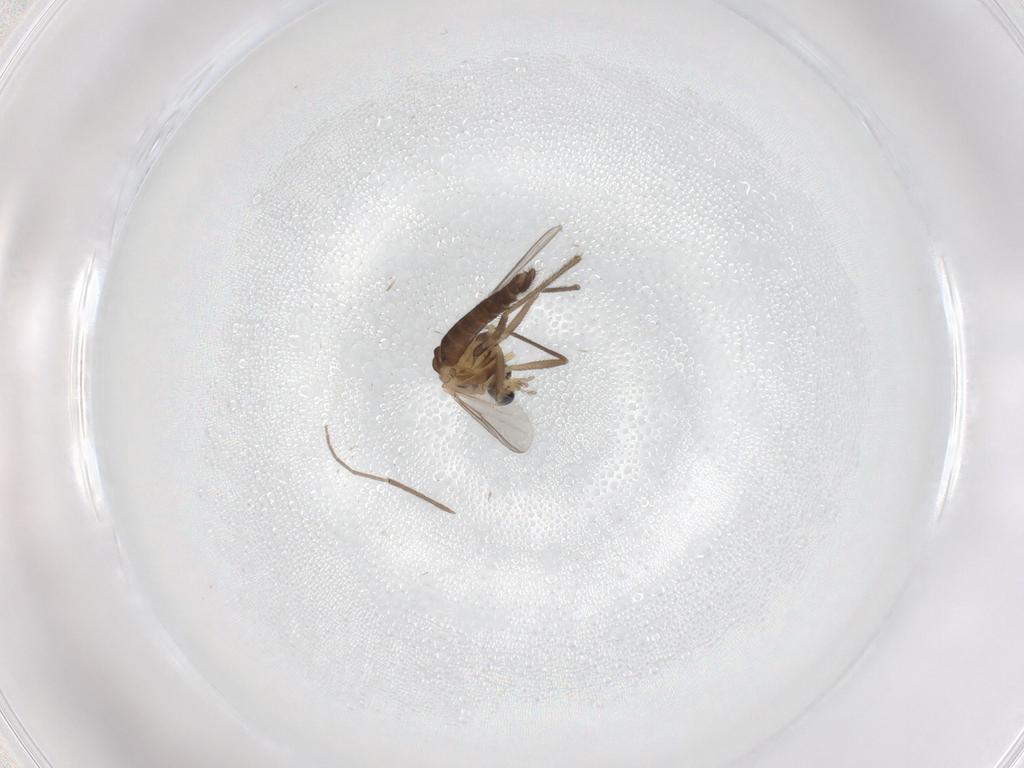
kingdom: Animalia
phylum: Arthropoda
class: Insecta
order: Diptera
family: Chironomidae
